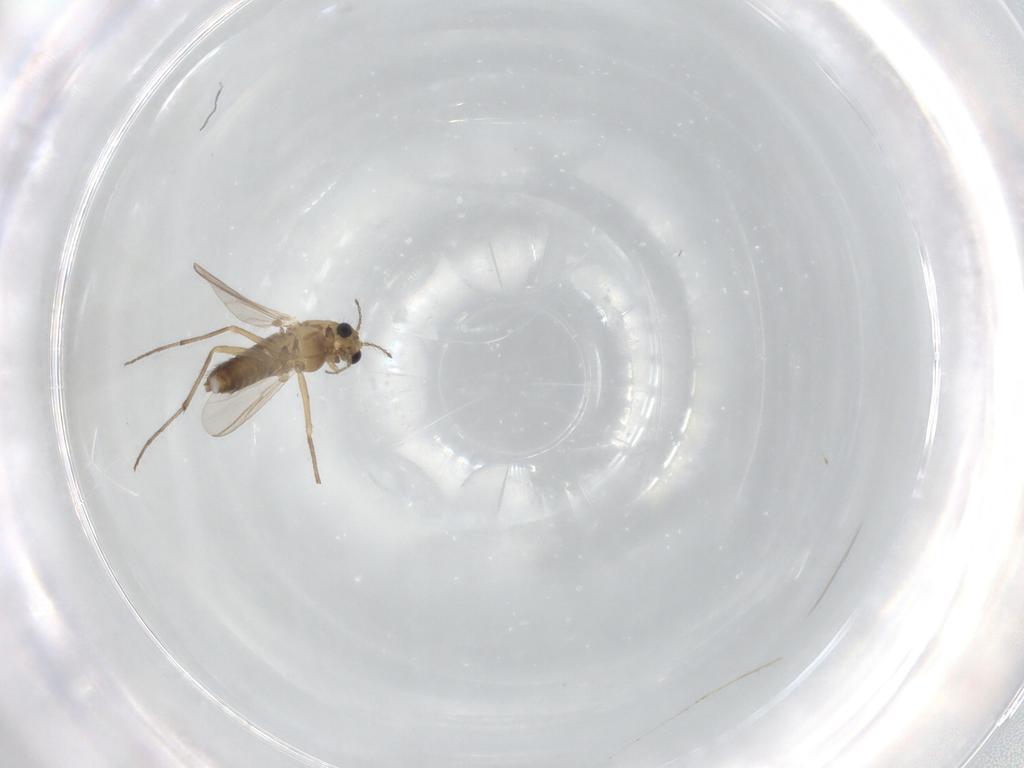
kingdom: Animalia
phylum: Arthropoda
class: Insecta
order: Diptera
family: Chironomidae
